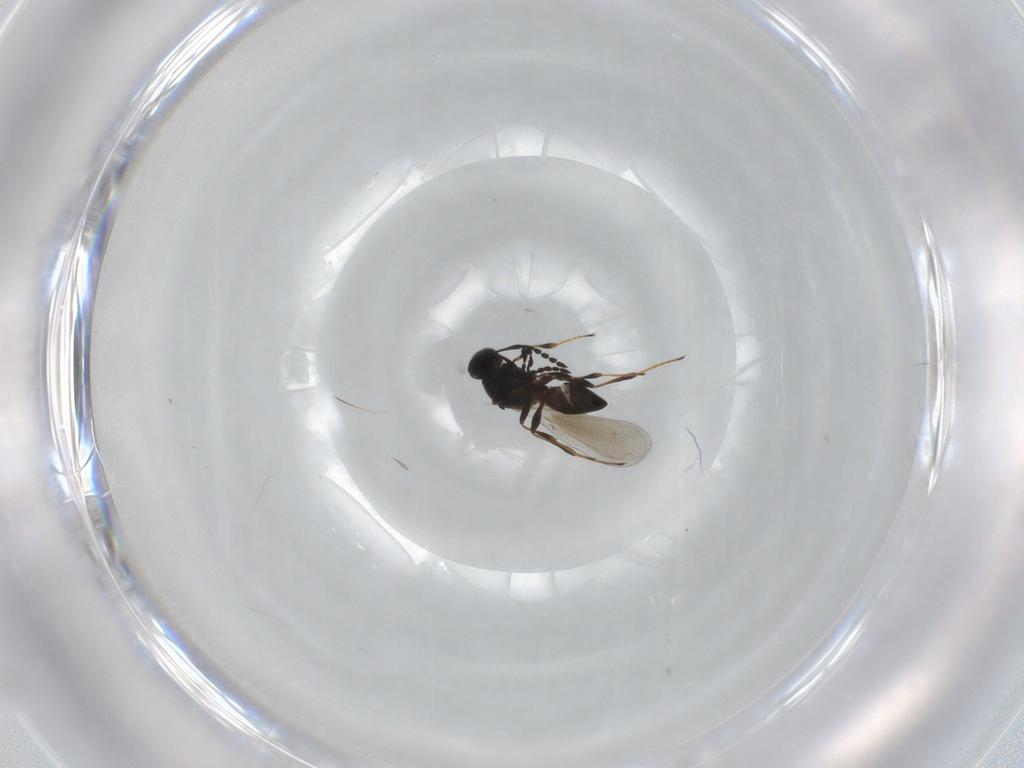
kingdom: Animalia
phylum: Arthropoda
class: Insecta
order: Hymenoptera
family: Platygastridae
